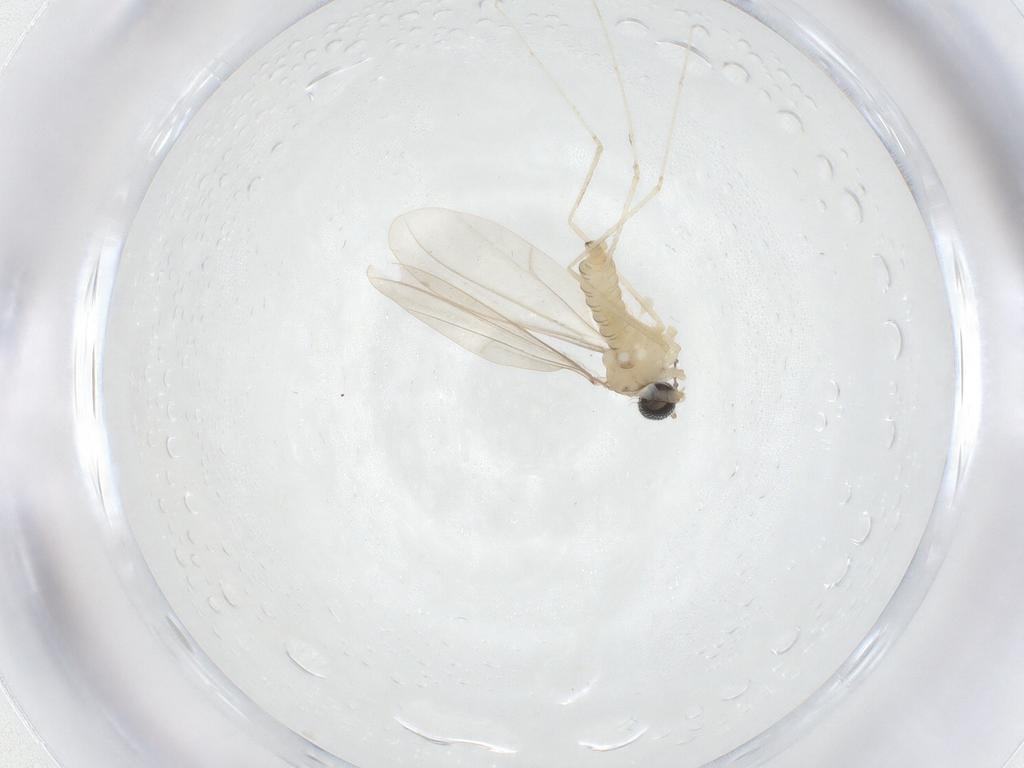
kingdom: Animalia
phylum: Arthropoda
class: Insecta
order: Diptera
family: Cecidomyiidae
